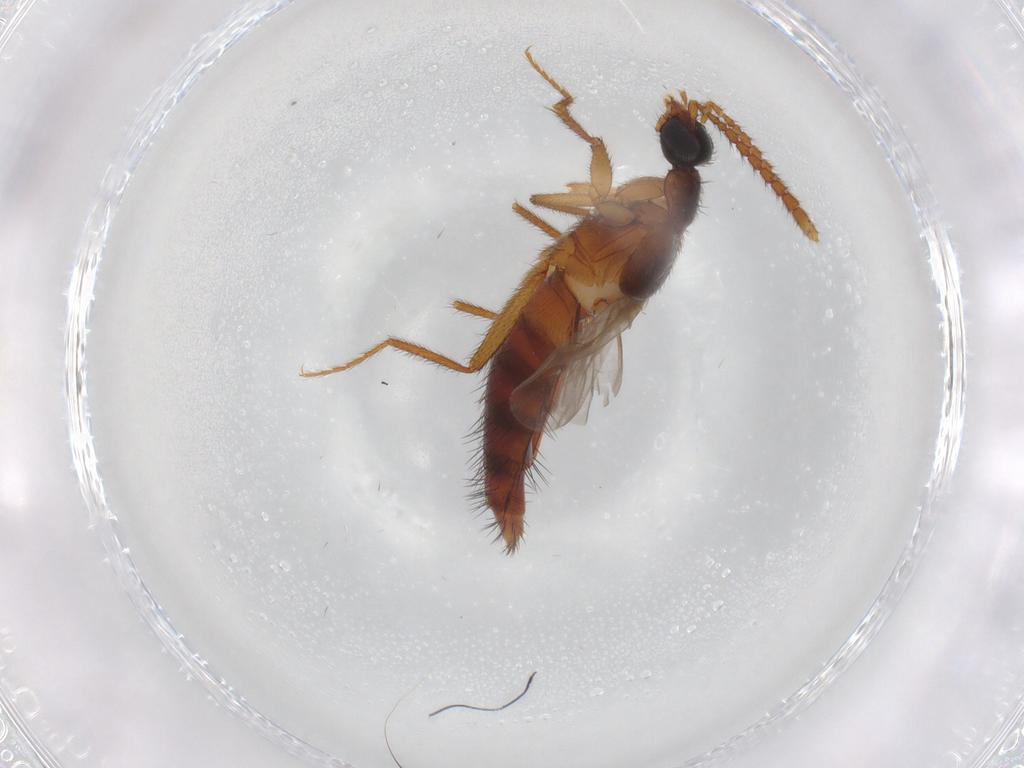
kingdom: Animalia
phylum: Arthropoda
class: Insecta
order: Coleoptera
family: Staphylinidae
